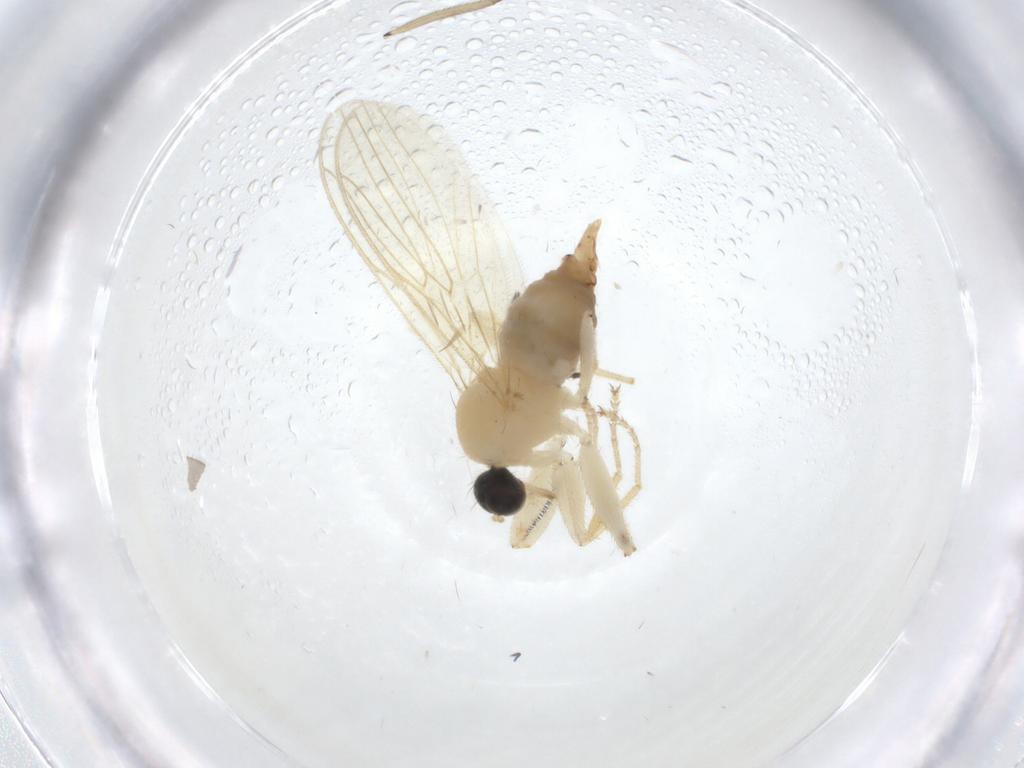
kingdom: Animalia
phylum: Arthropoda
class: Insecta
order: Diptera
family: Hybotidae
